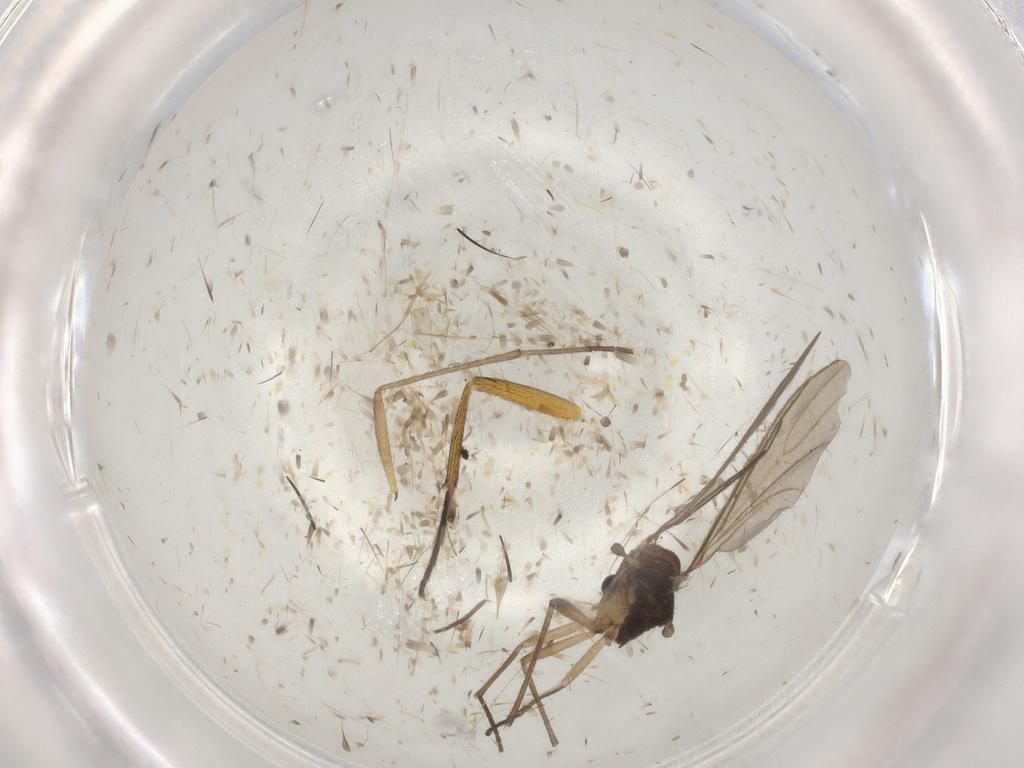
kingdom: Animalia
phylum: Arthropoda
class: Insecta
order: Diptera
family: Sciaridae
